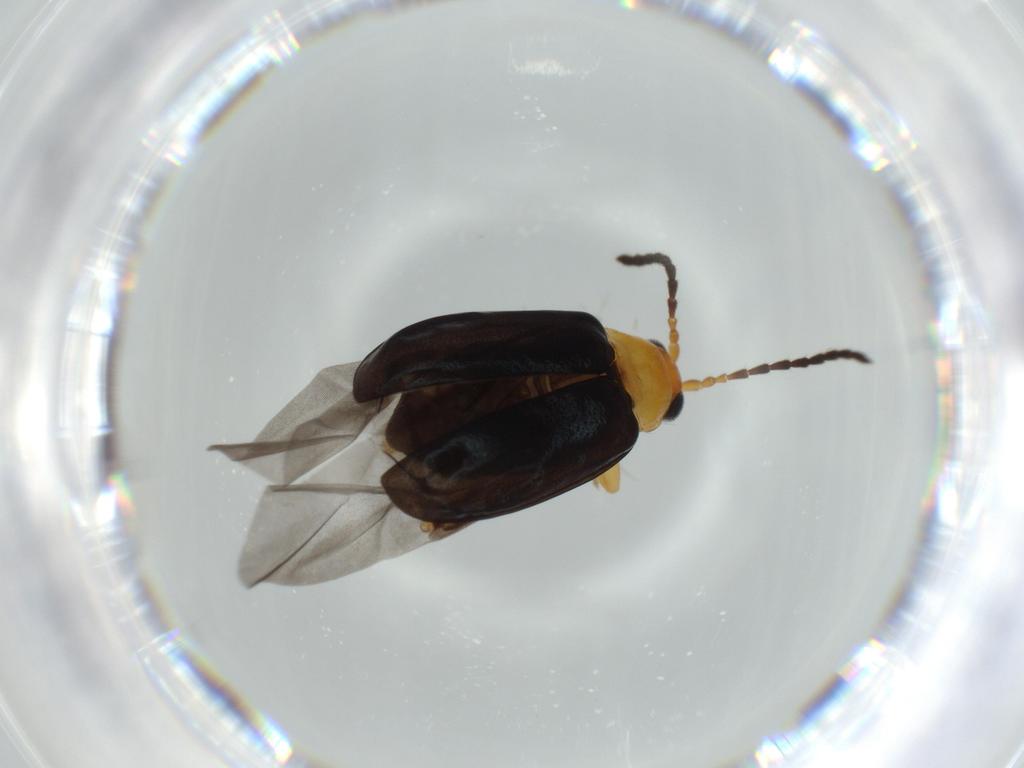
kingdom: Animalia
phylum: Arthropoda
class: Insecta
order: Coleoptera
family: Chrysomelidae
